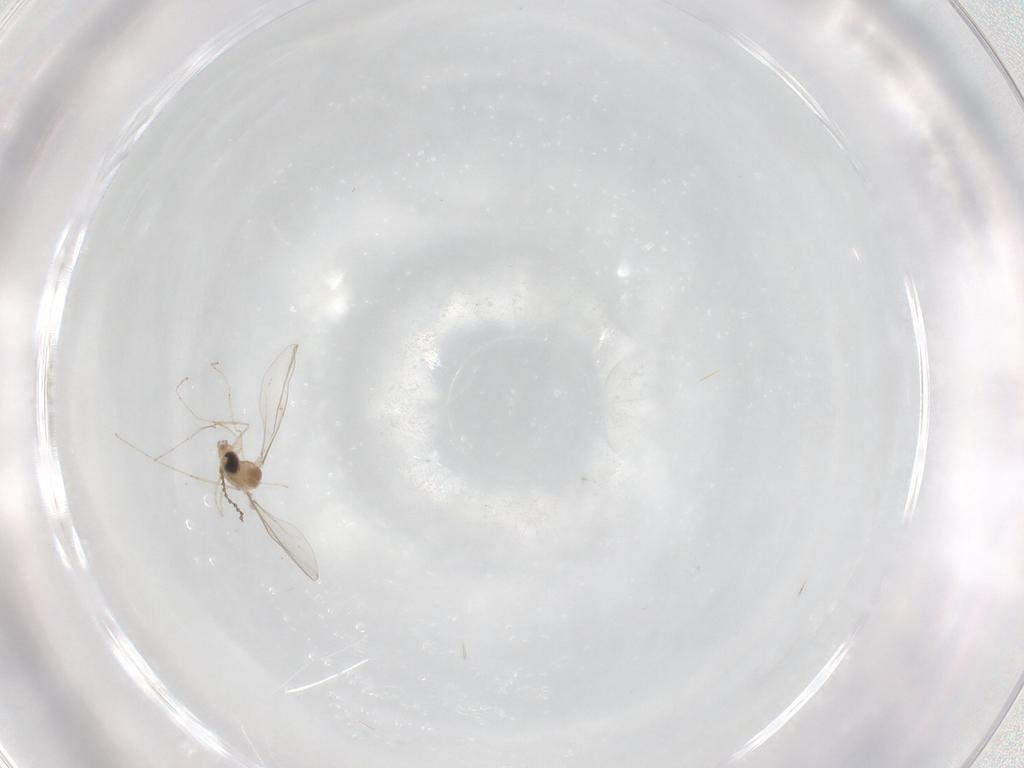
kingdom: Animalia
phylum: Arthropoda
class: Insecta
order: Diptera
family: Cecidomyiidae
